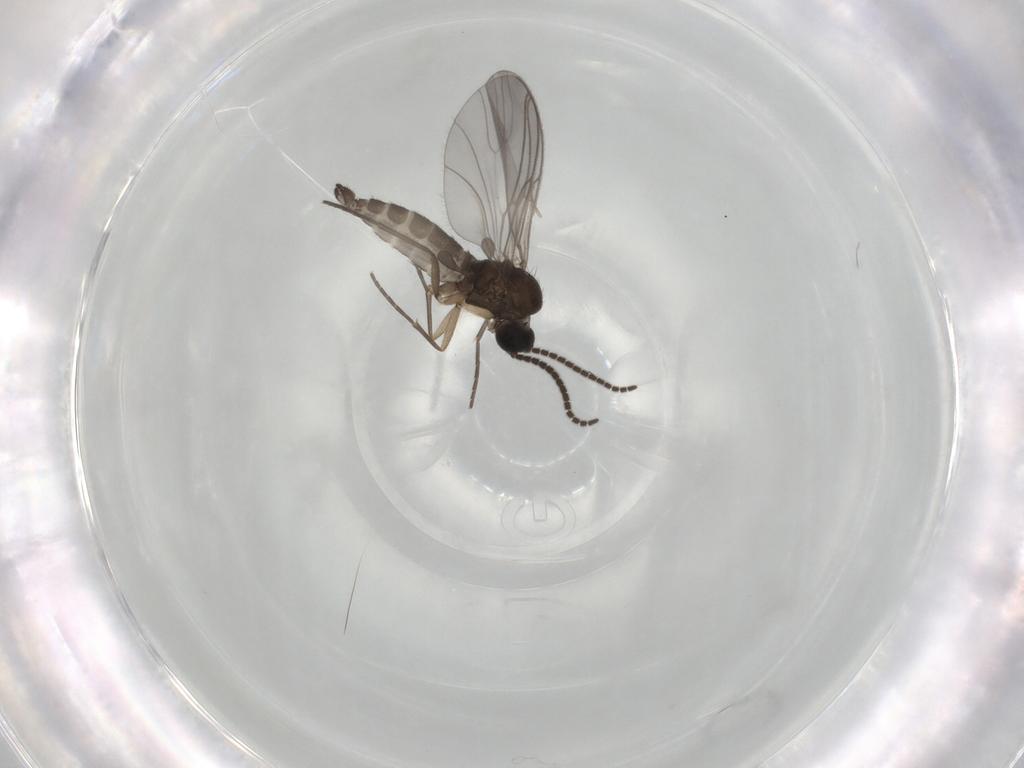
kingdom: Animalia
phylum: Arthropoda
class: Insecta
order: Diptera
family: Sciaridae
